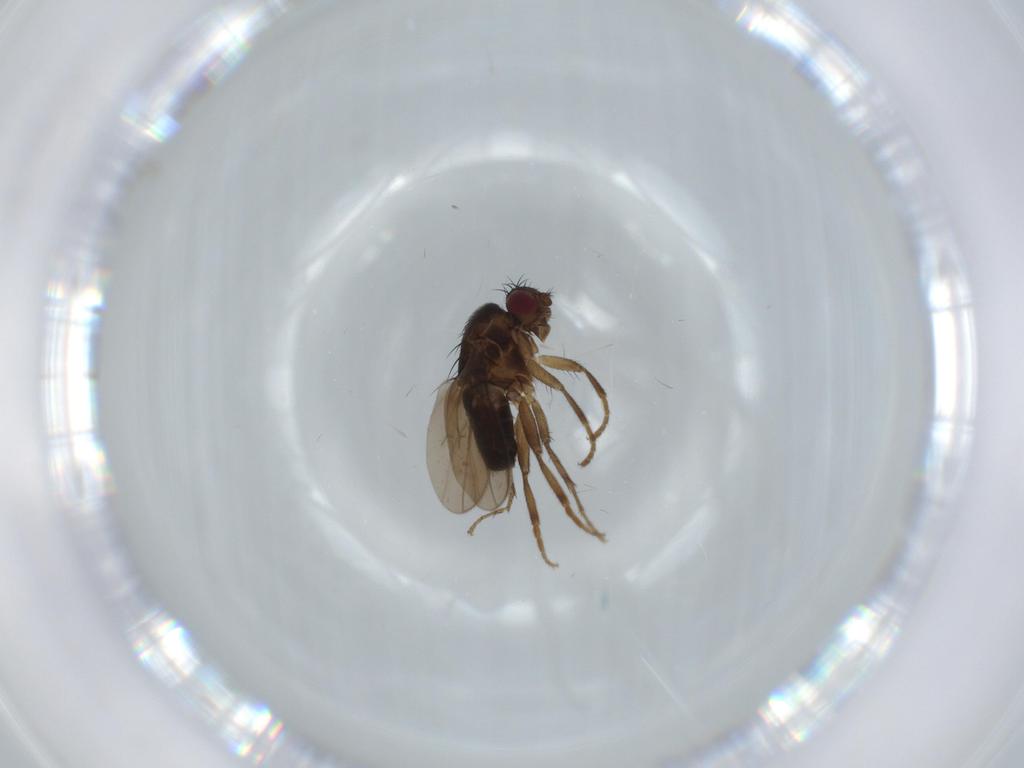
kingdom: Animalia
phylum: Arthropoda
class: Insecta
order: Diptera
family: Sphaeroceridae
